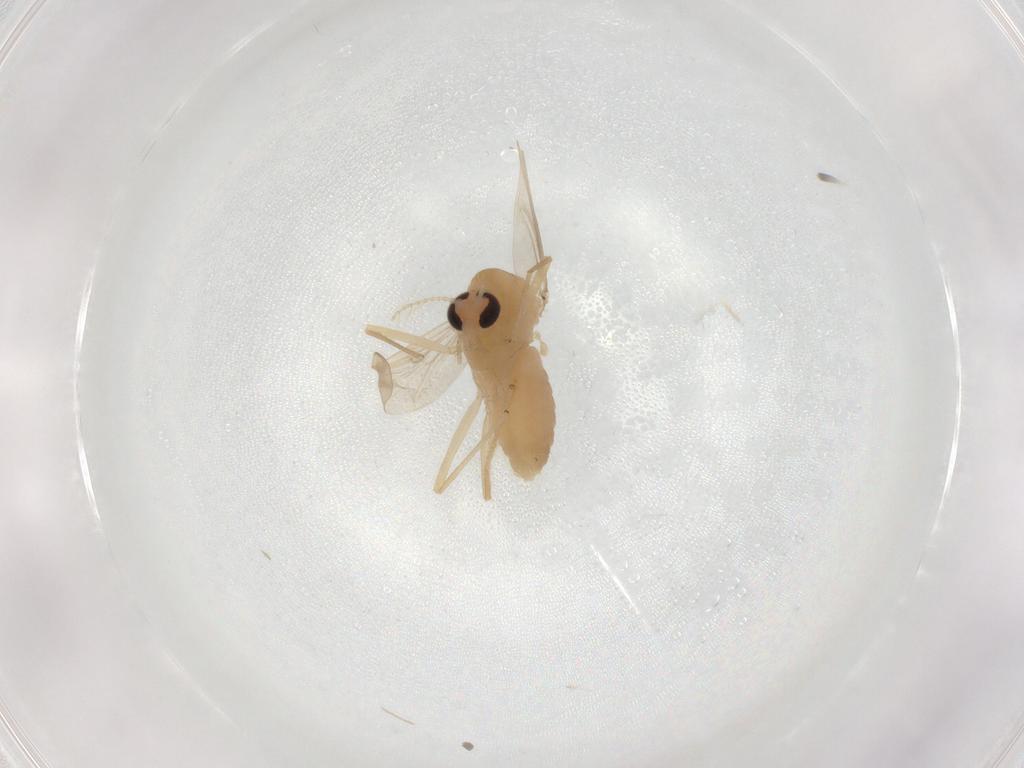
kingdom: Animalia
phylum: Arthropoda
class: Insecta
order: Diptera
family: Chironomidae
